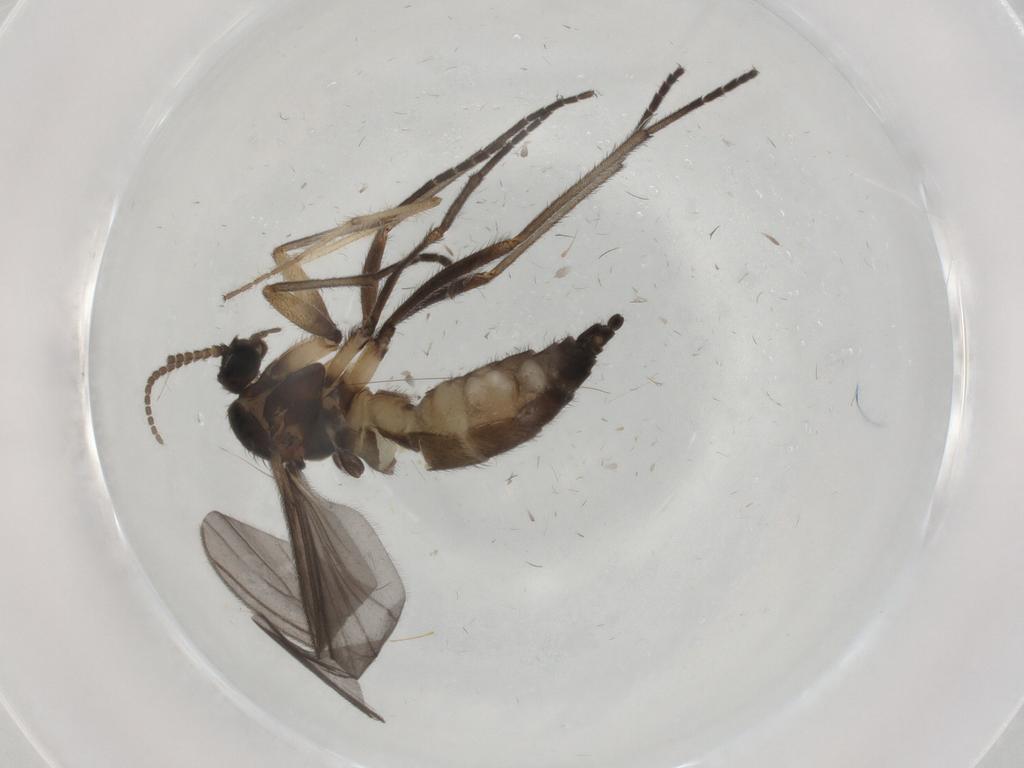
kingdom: Animalia
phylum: Arthropoda
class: Insecta
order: Diptera
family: Sciaridae
